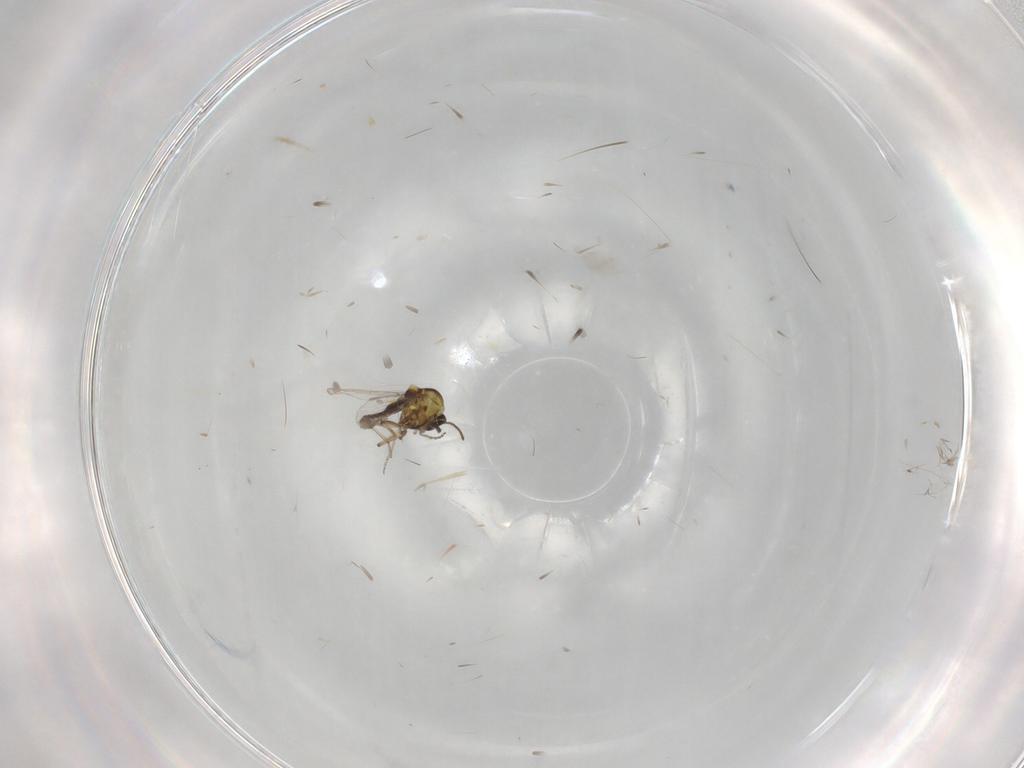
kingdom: Animalia
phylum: Arthropoda
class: Insecta
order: Diptera
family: Ceratopogonidae
